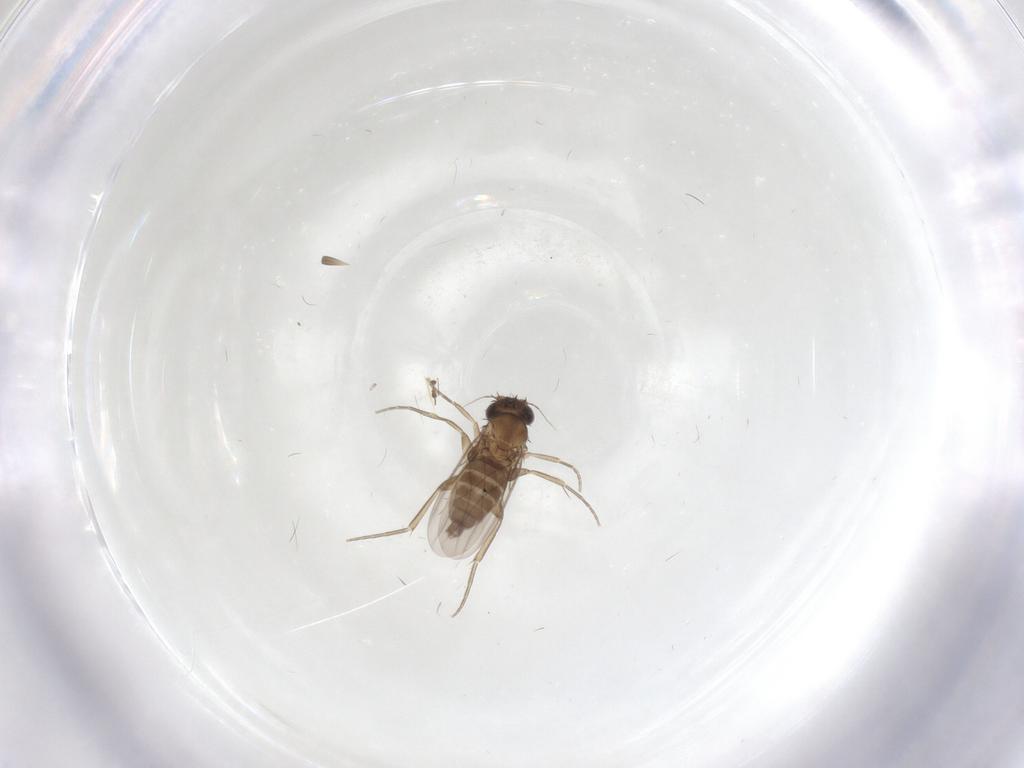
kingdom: Animalia
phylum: Arthropoda
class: Insecta
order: Diptera
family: Phoridae
